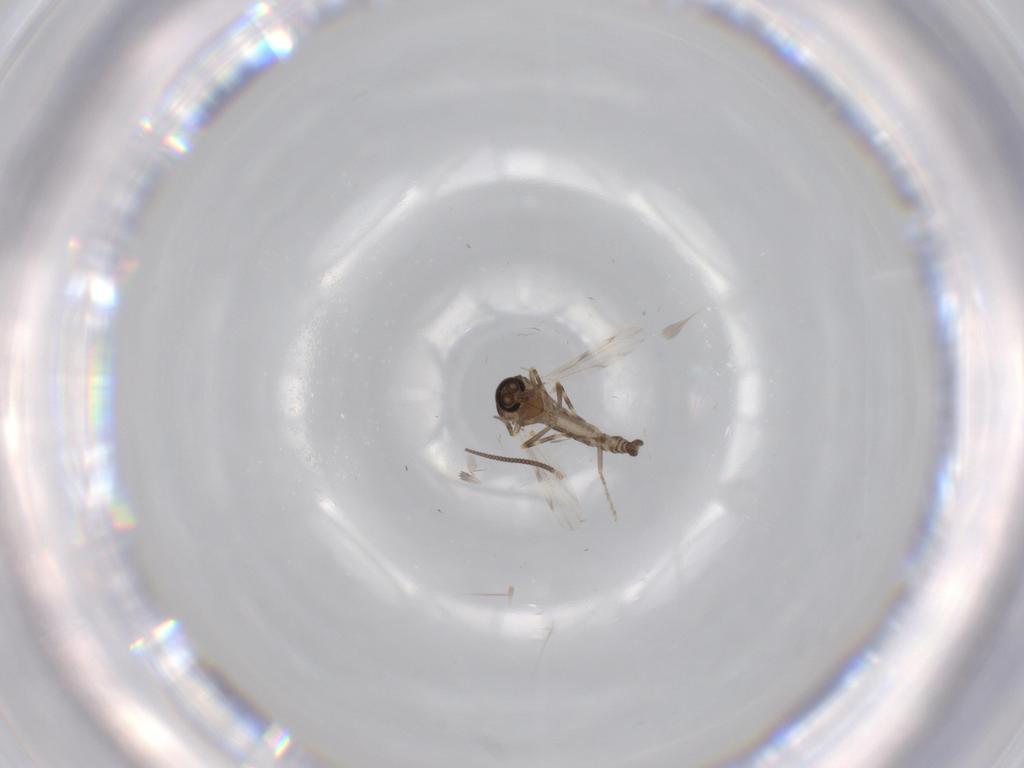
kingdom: Animalia
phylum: Arthropoda
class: Insecta
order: Diptera
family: Ceratopogonidae
